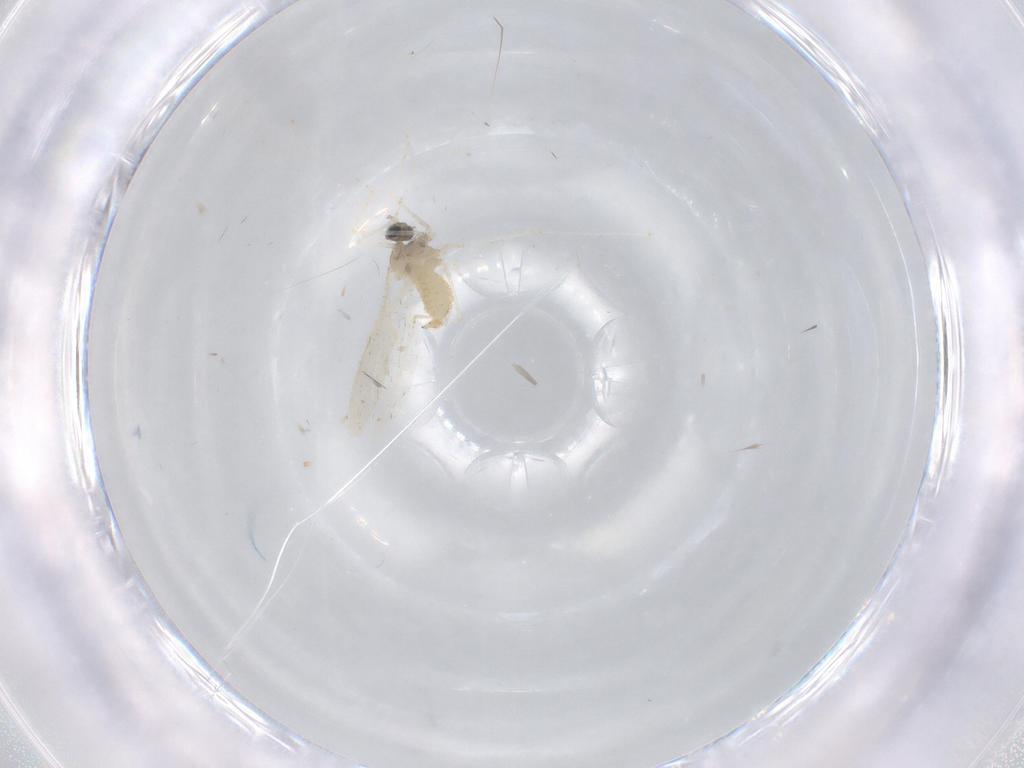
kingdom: Animalia
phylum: Arthropoda
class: Insecta
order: Diptera
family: Cecidomyiidae
